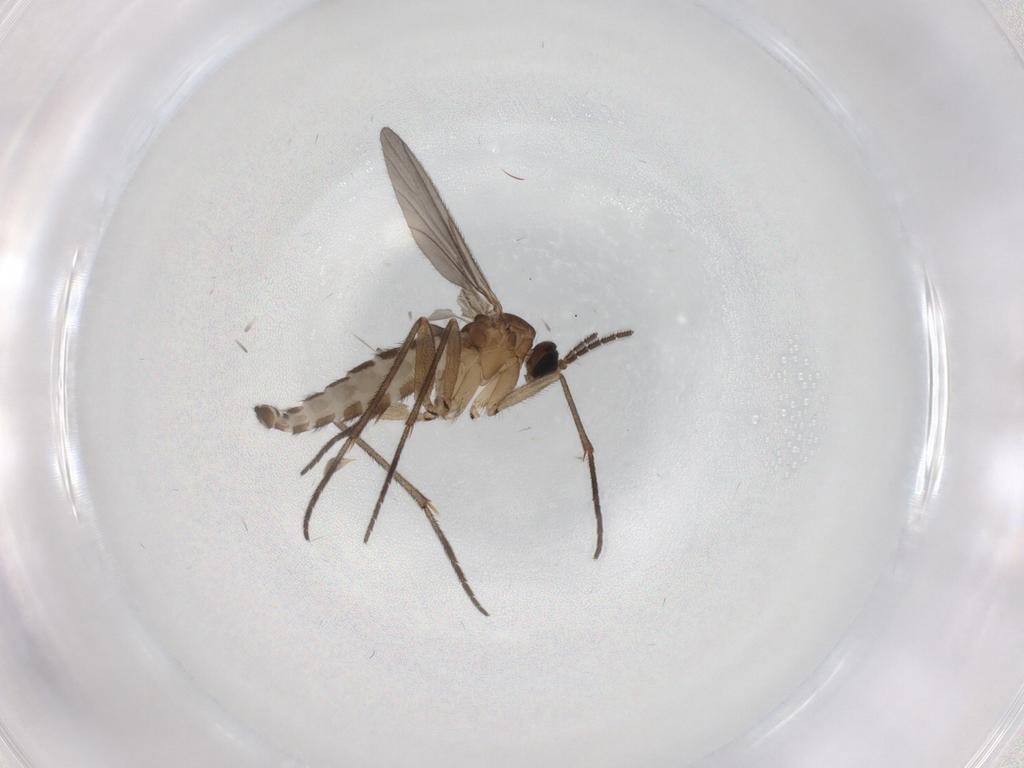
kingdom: Animalia
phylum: Arthropoda
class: Insecta
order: Diptera
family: Sciaridae
